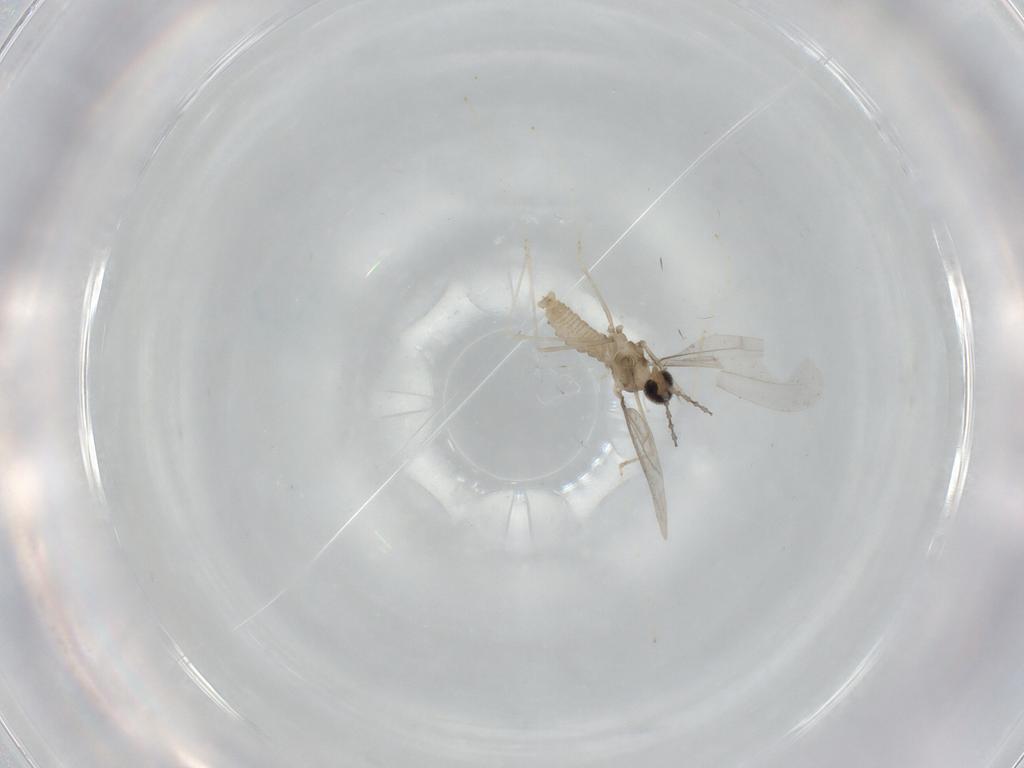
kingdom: Animalia
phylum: Arthropoda
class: Insecta
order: Diptera
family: Cecidomyiidae
